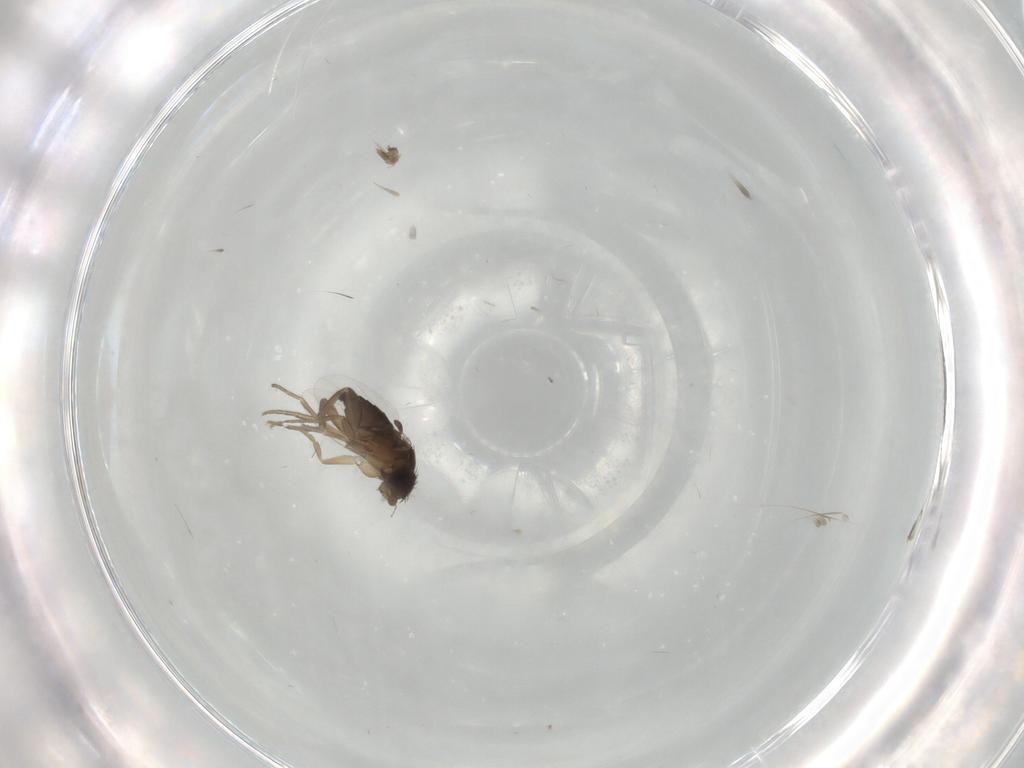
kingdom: Animalia
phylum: Arthropoda
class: Insecta
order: Diptera
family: Phoridae
